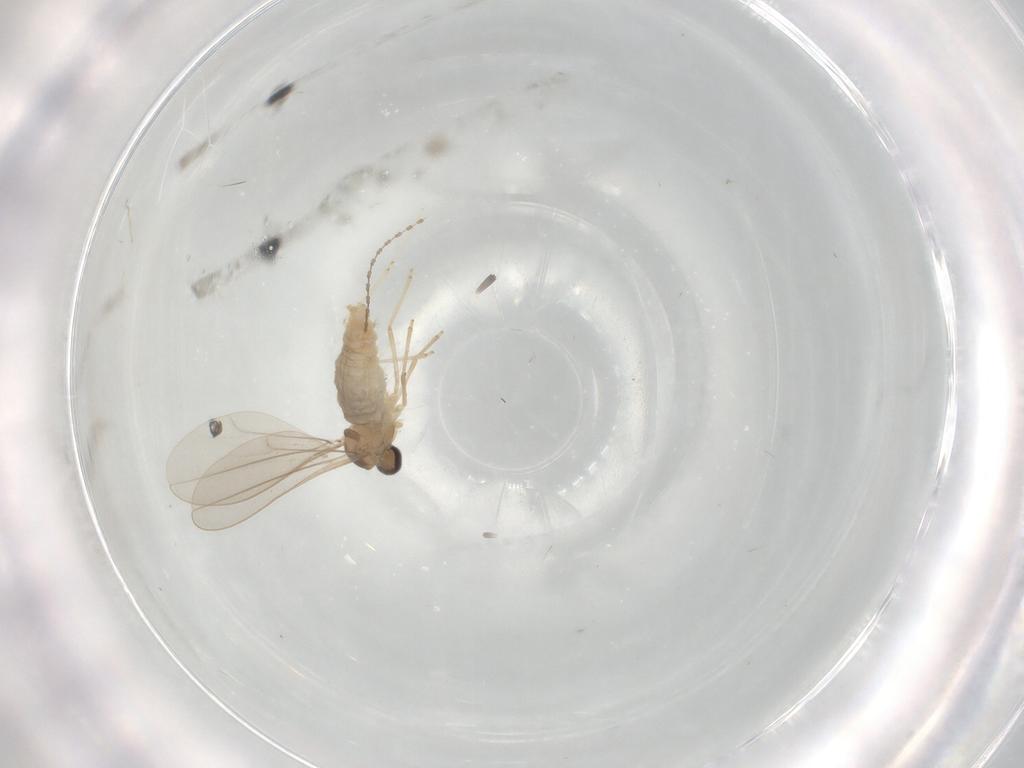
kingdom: Animalia
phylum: Arthropoda
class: Insecta
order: Diptera
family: Cecidomyiidae
